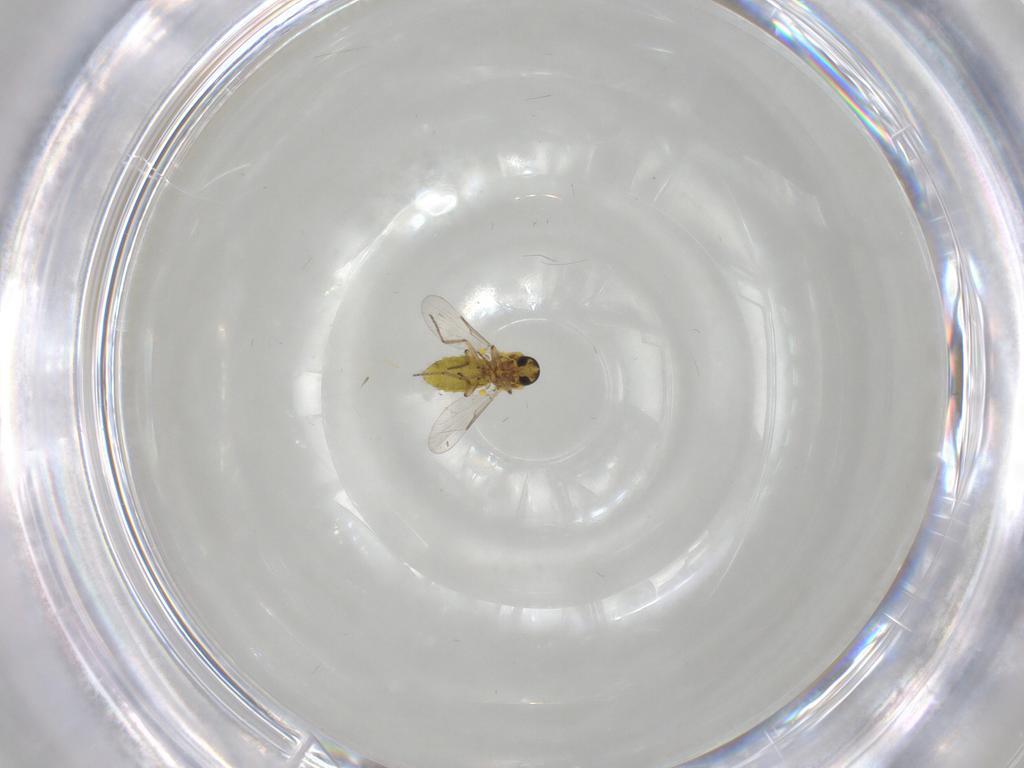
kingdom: Animalia
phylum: Arthropoda
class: Insecta
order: Diptera
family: Ceratopogonidae
